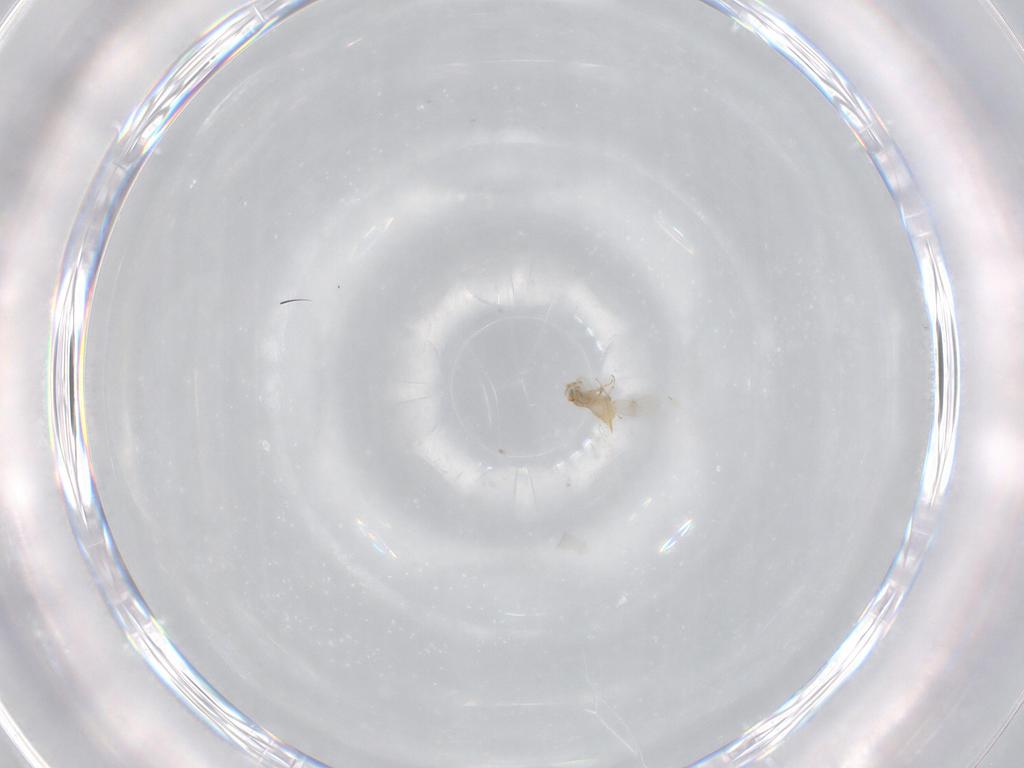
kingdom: Animalia
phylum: Arthropoda
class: Insecta
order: Hymenoptera
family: Aphelinidae
